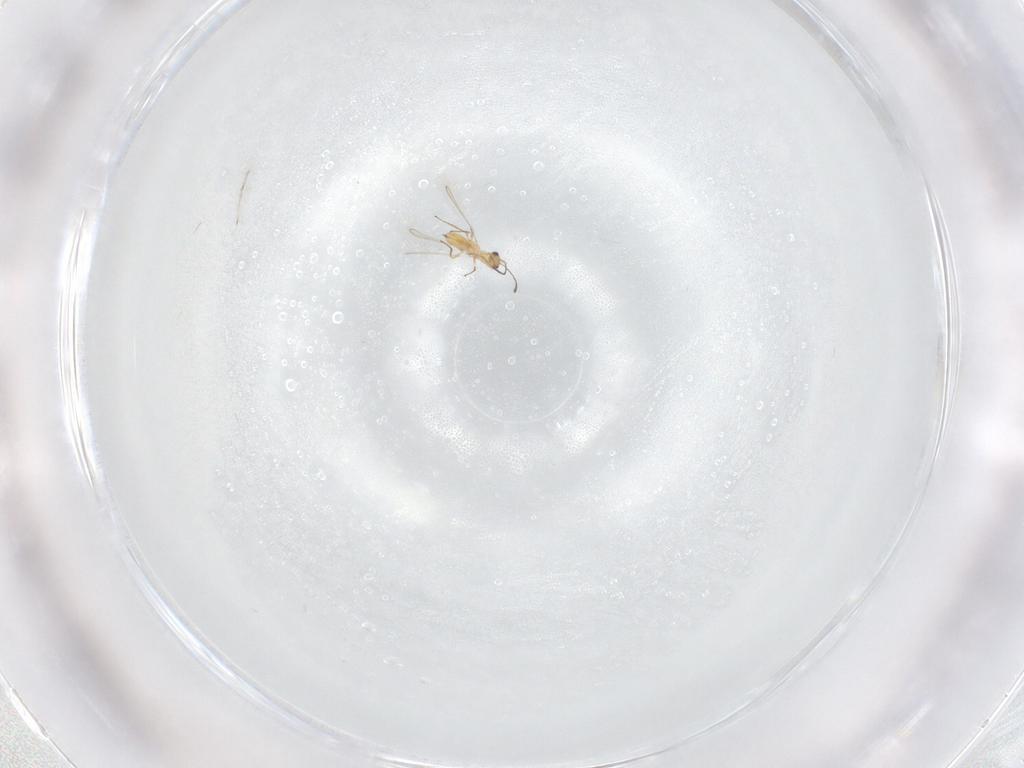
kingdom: Animalia
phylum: Arthropoda
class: Insecta
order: Hymenoptera
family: Mymaridae
